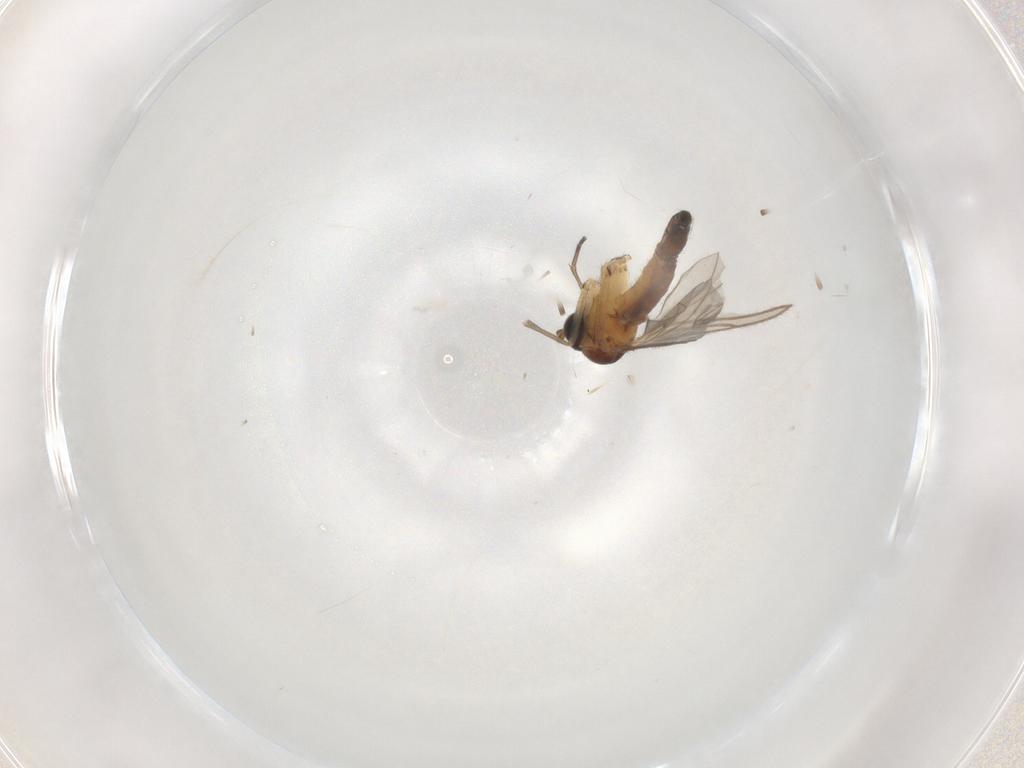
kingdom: Animalia
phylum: Arthropoda
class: Insecta
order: Diptera
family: Sciaridae
